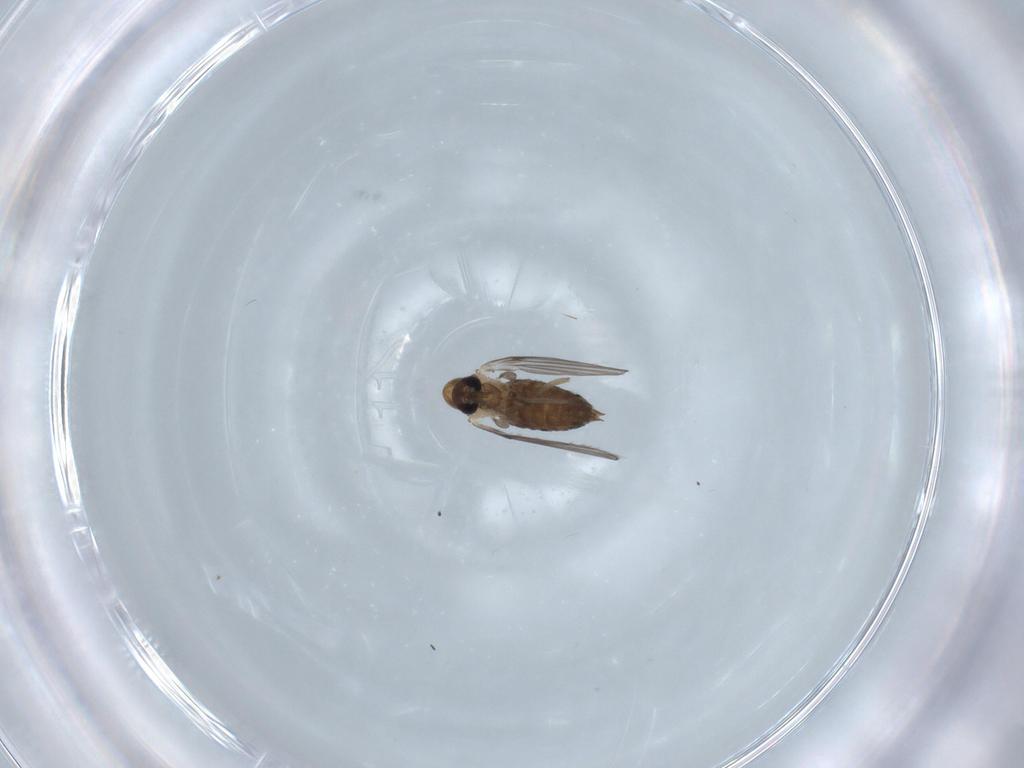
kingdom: Animalia
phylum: Arthropoda
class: Insecta
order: Diptera
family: Psychodidae
